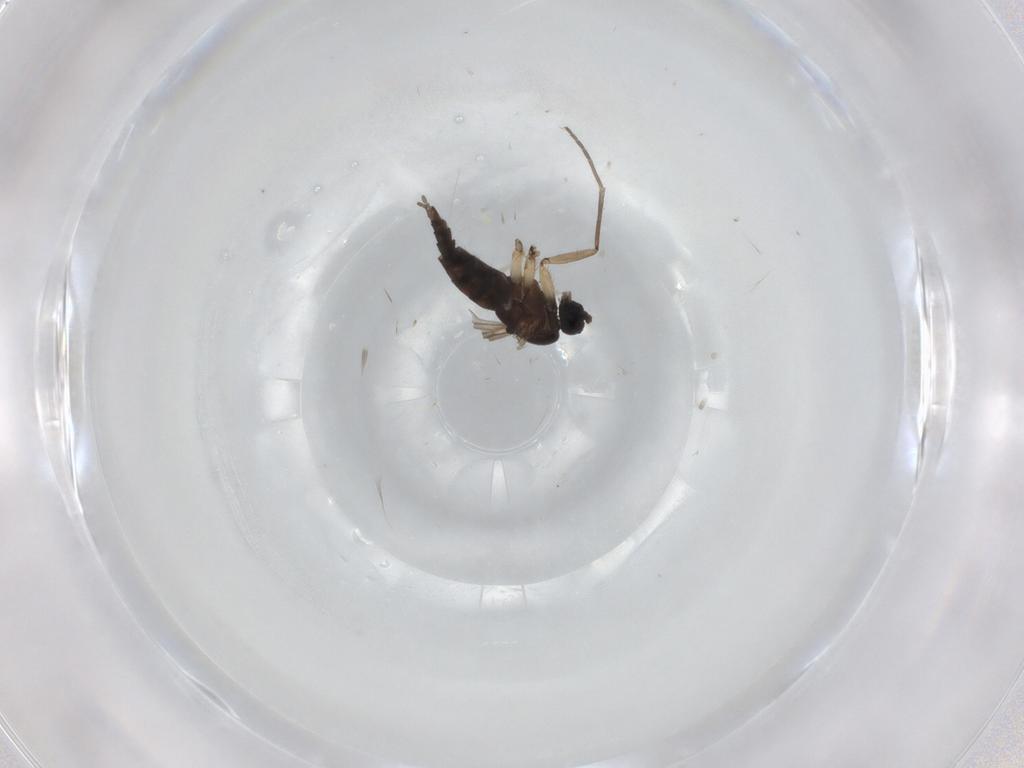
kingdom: Animalia
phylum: Arthropoda
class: Insecta
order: Diptera
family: Sciaridae
